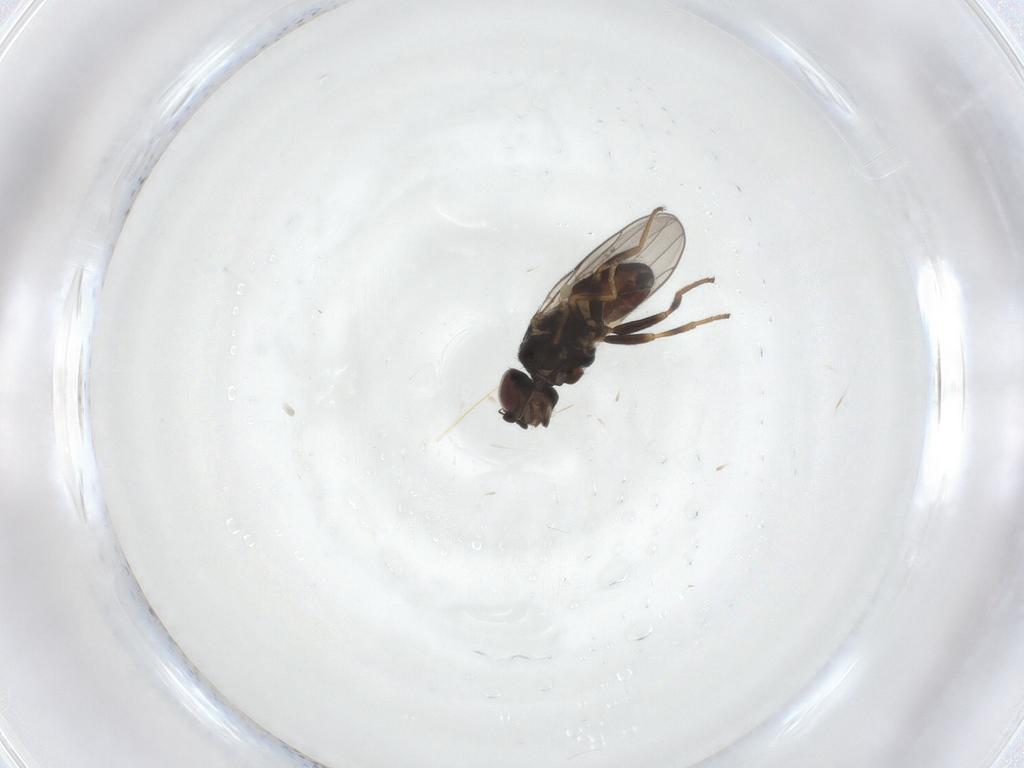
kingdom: Animalia
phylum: Arthropoda
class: Insecta
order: Diptera
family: Chloropidae
